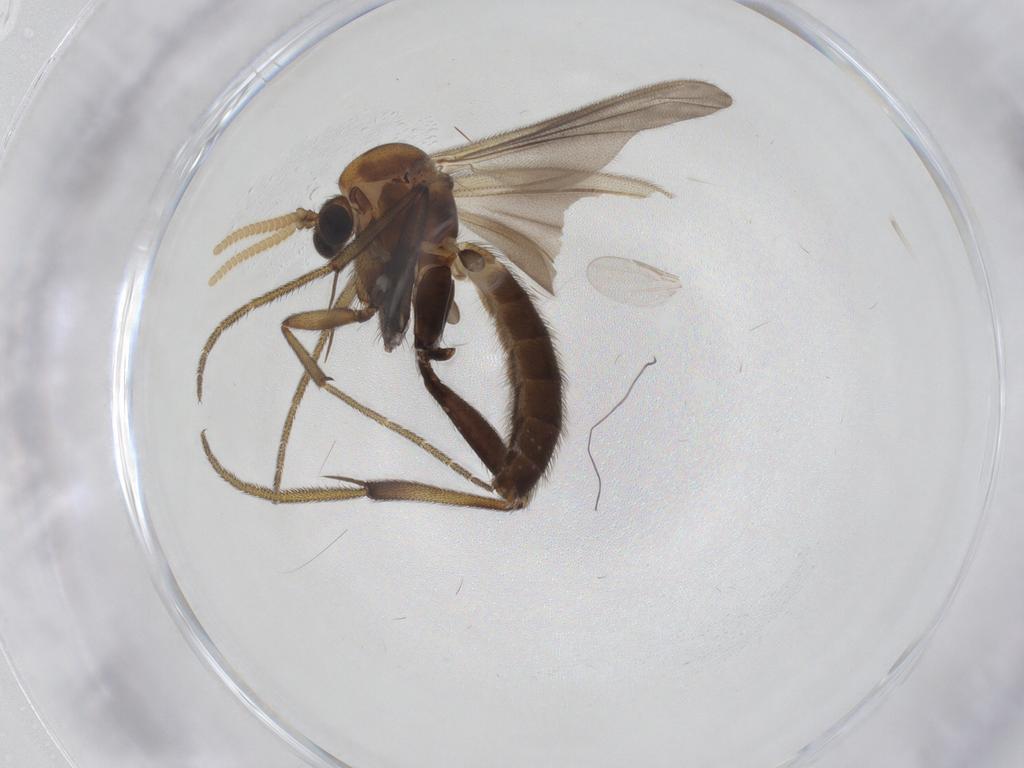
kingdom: Animalia
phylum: Arthropoda
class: Insecta
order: Diptera
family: Mycetophilidae
